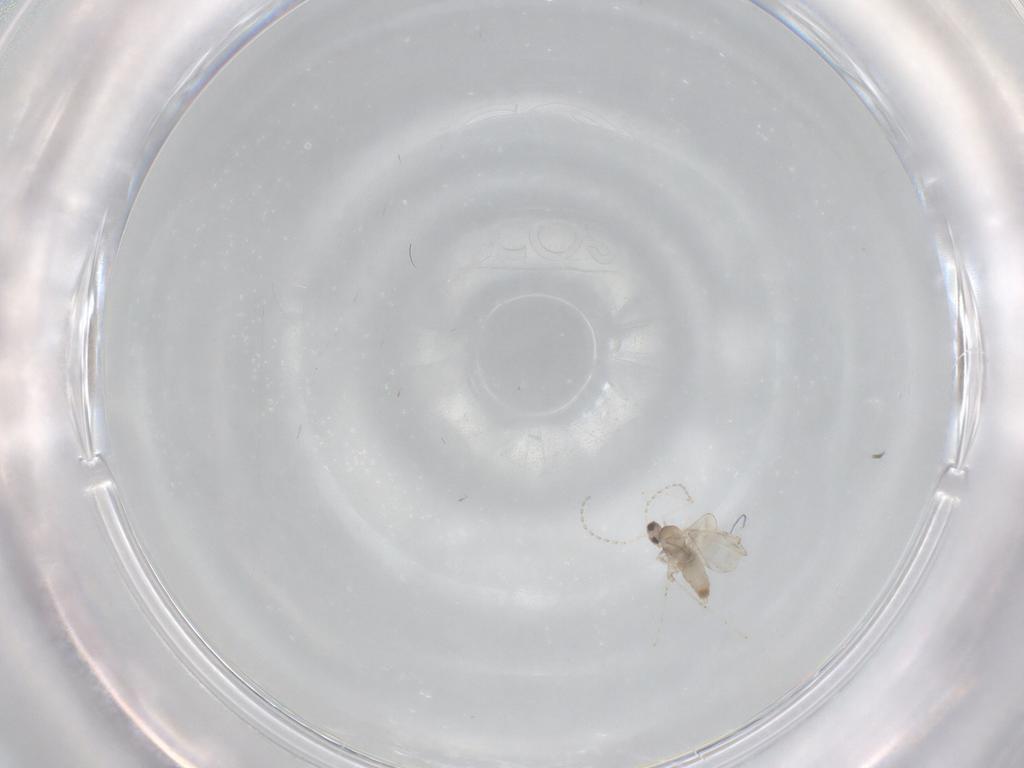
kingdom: Animalia
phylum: Arthropoda
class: Insecta
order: Diptera
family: Cecidomyiidae
